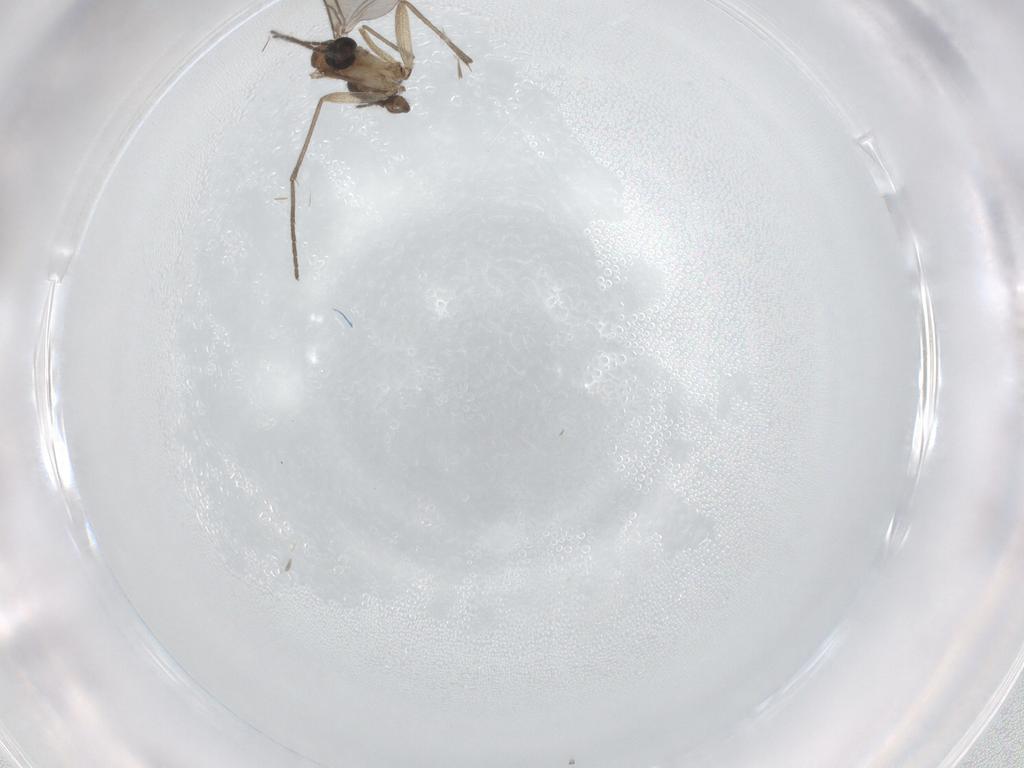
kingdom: Animalia
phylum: Arthropoda
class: Insecta
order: Diptera
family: Sciaridae
